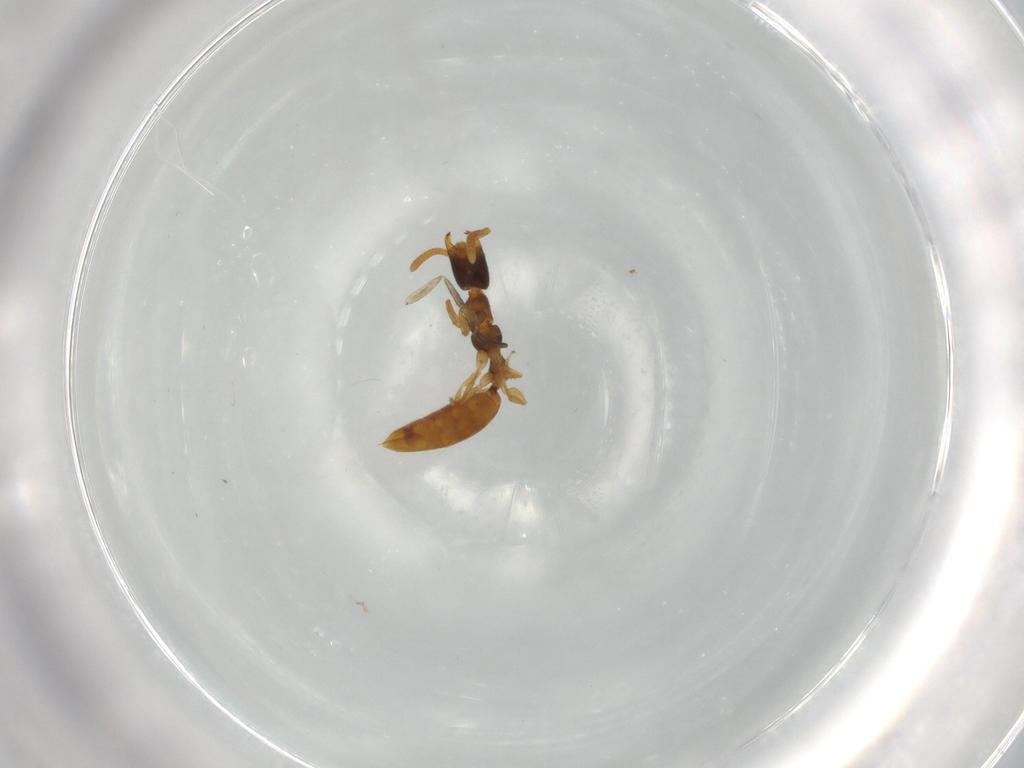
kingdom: Animalia
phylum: Arthropoda
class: Insecta
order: Hymenoptera
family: Bethylidae
